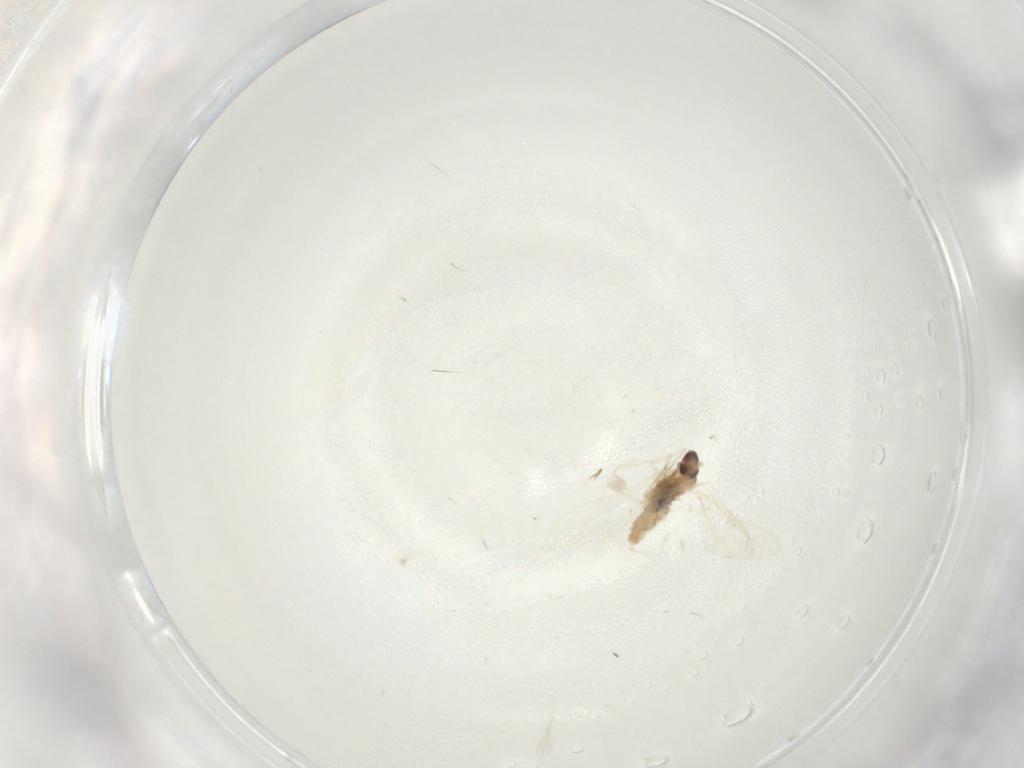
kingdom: Animalia
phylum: Arthropoda
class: Insecta
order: Diptera
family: Cecidomyiidae
